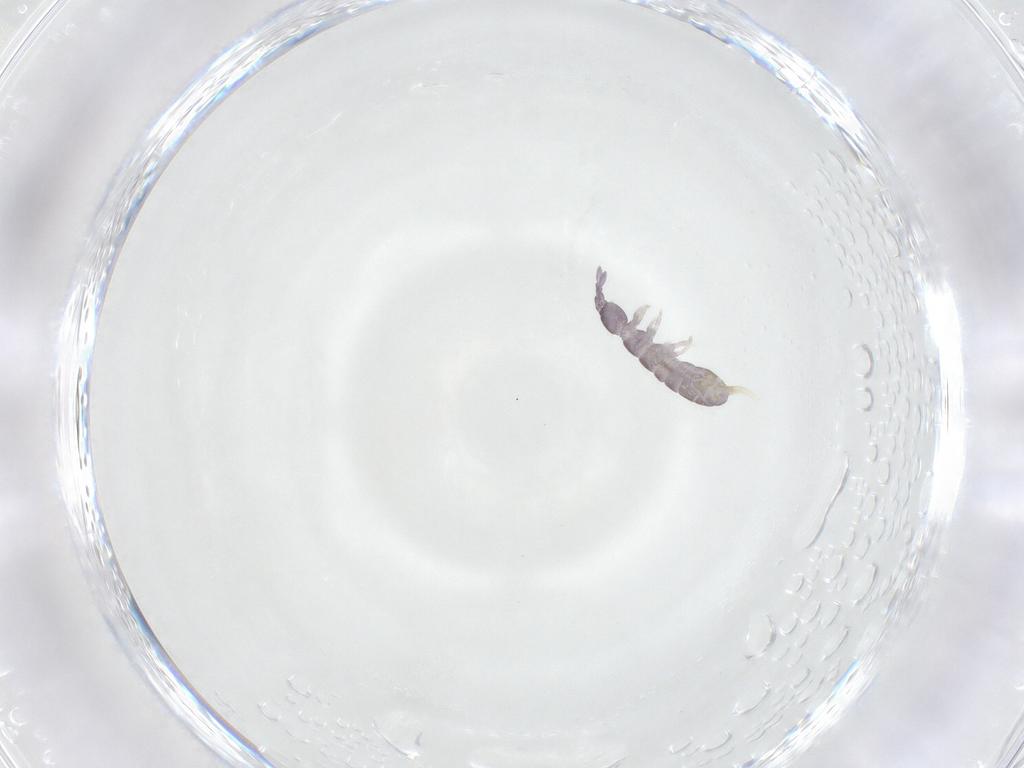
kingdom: Animalia
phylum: Arthropoda
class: Collembola
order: Entomobryomorpha
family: Isotomidae
